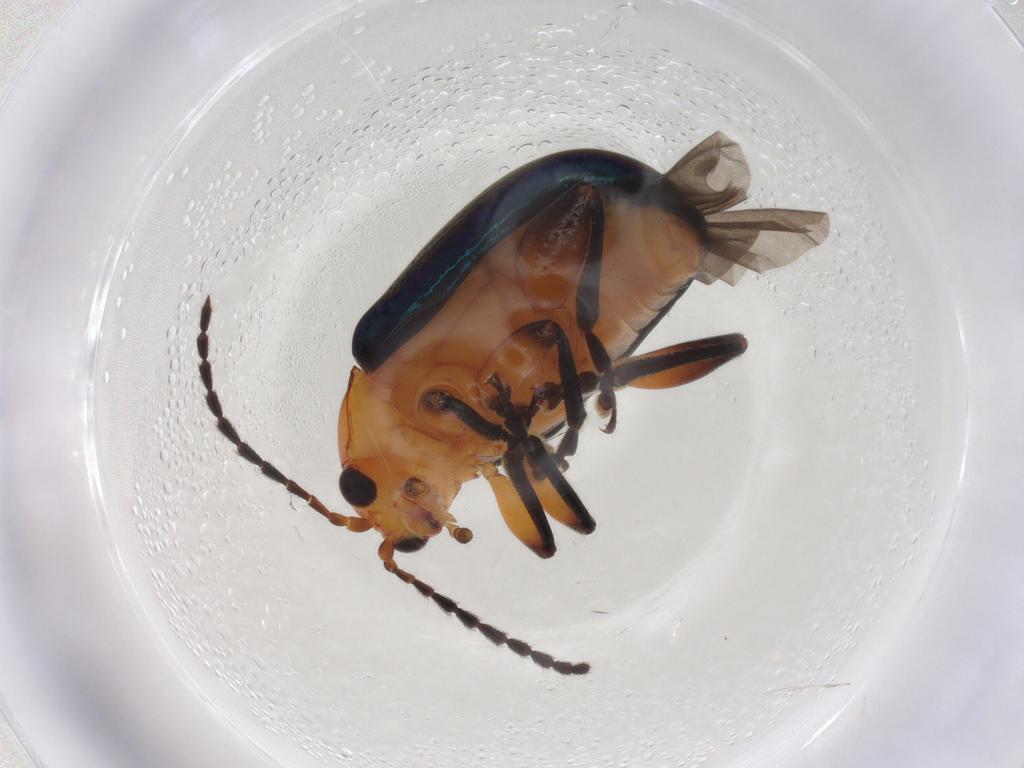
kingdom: Animalia
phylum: Arthropoda
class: Insecta
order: Coleoptera
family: Chrysomelidae
